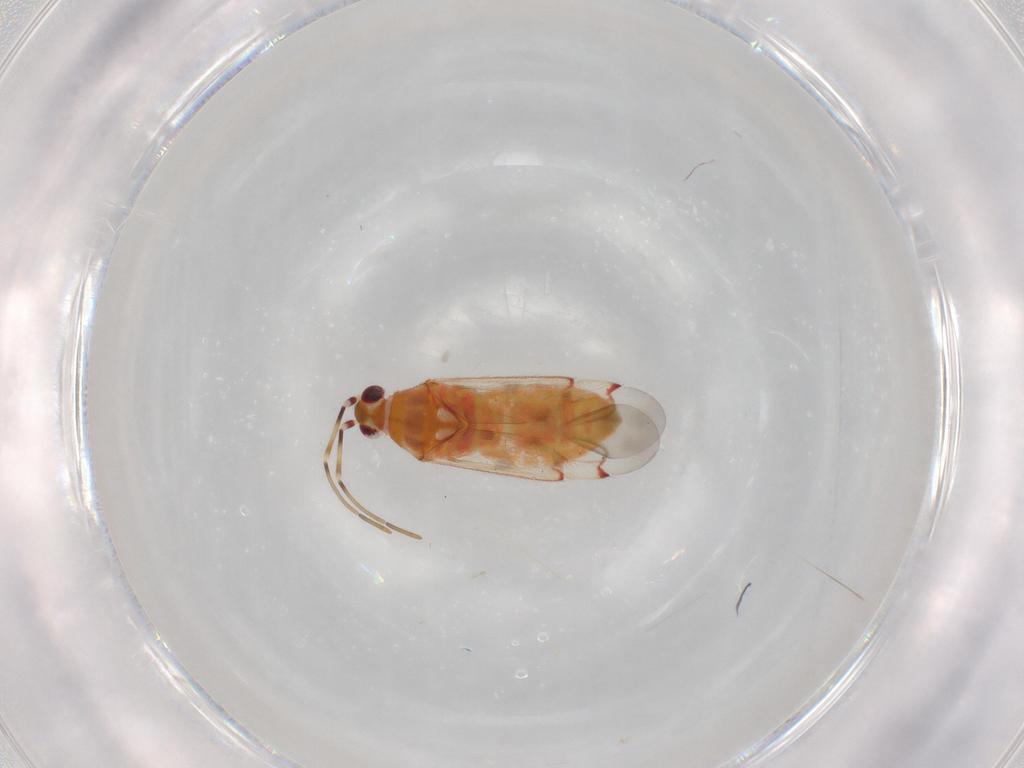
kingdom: Animalia
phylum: Arthropoda
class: Insecta
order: Hemiptera
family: Miridae
